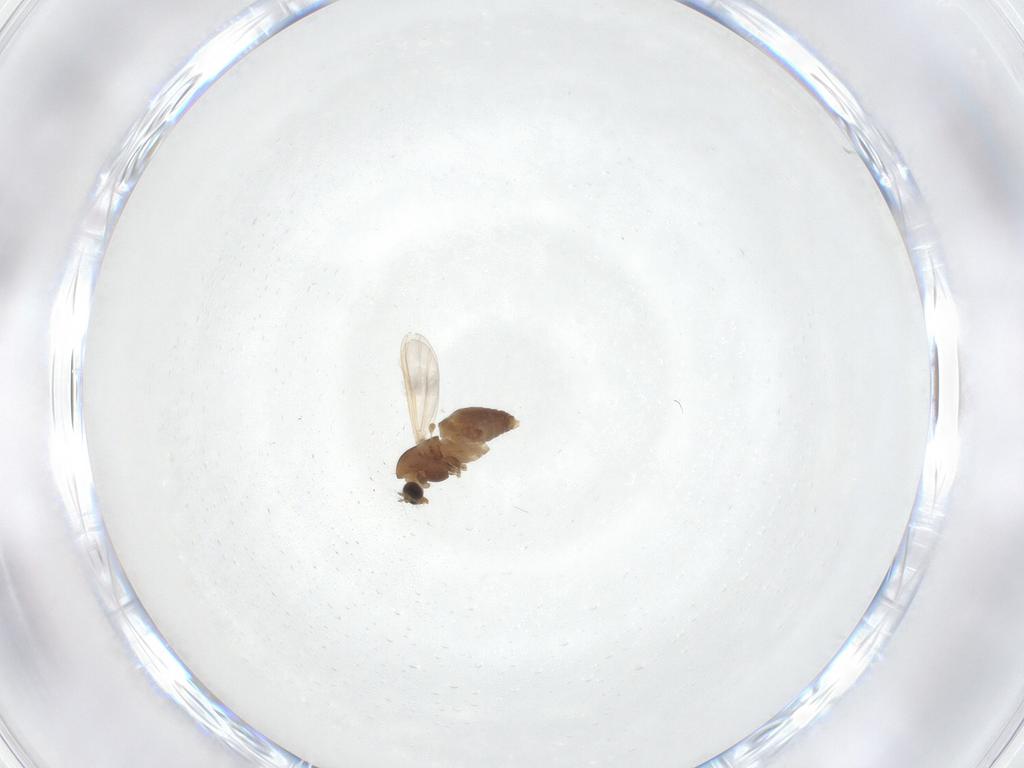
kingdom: Animalia
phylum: Arthropoda
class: Insecta
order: Diptera
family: Chironomidae
